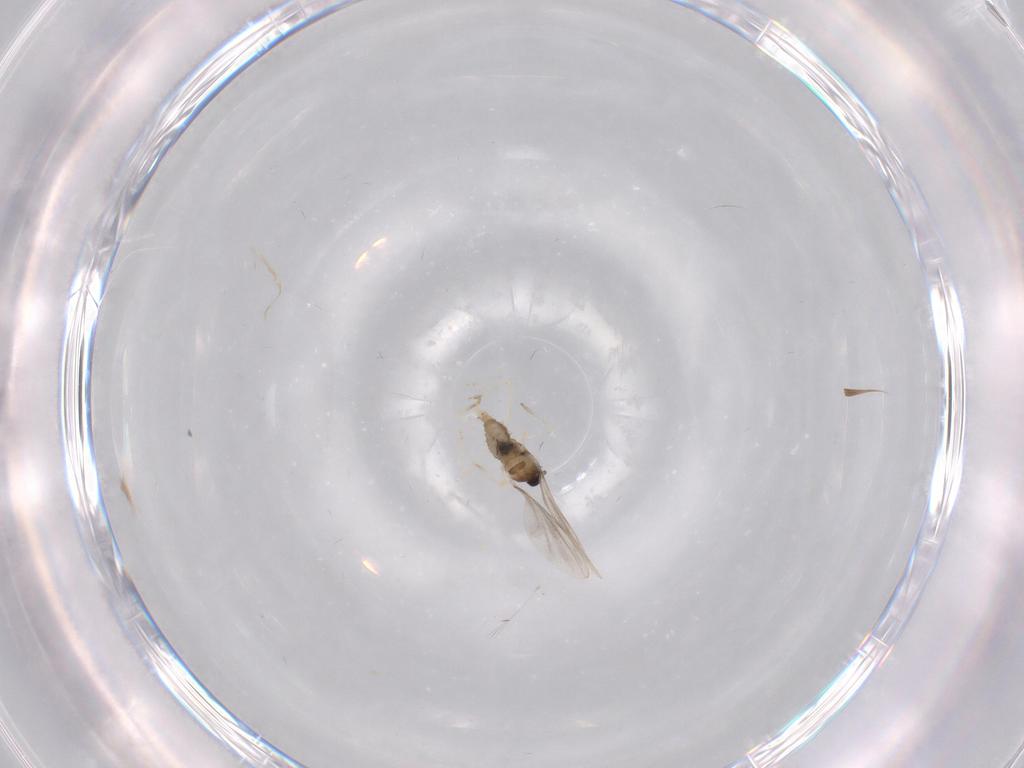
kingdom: Animalia
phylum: Arthropoda
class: Insecta
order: Diptera
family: Cecidomyiidae
